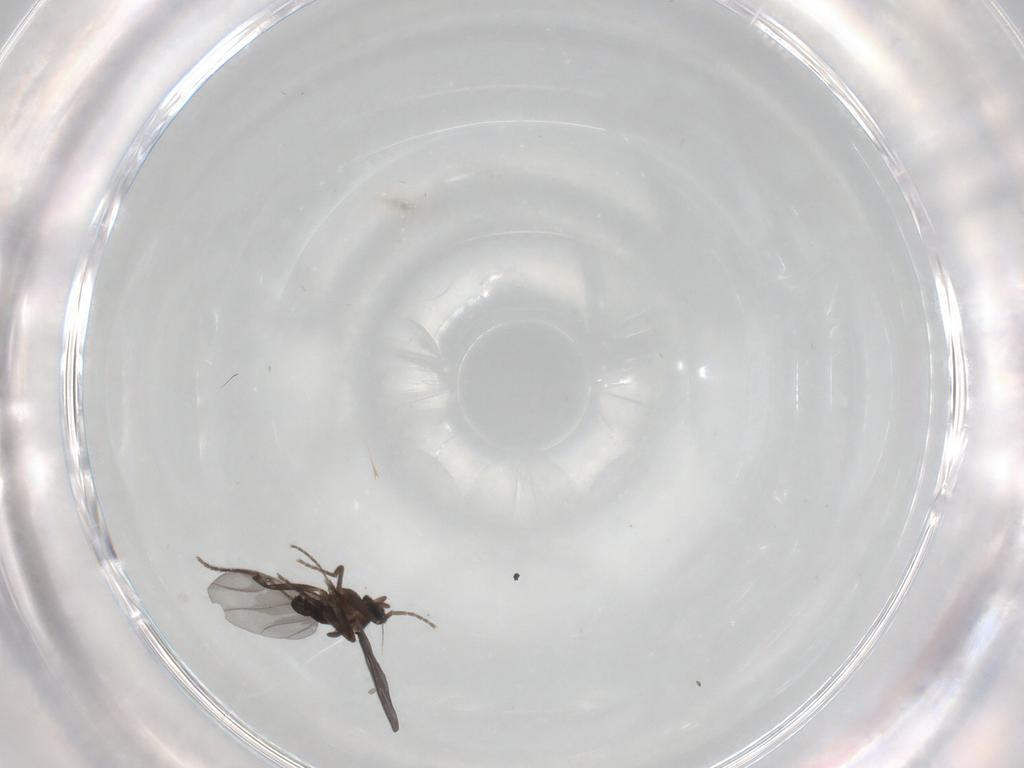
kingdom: Animalia
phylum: Arthropoda
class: Insecta
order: Diptera
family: Phoridae
